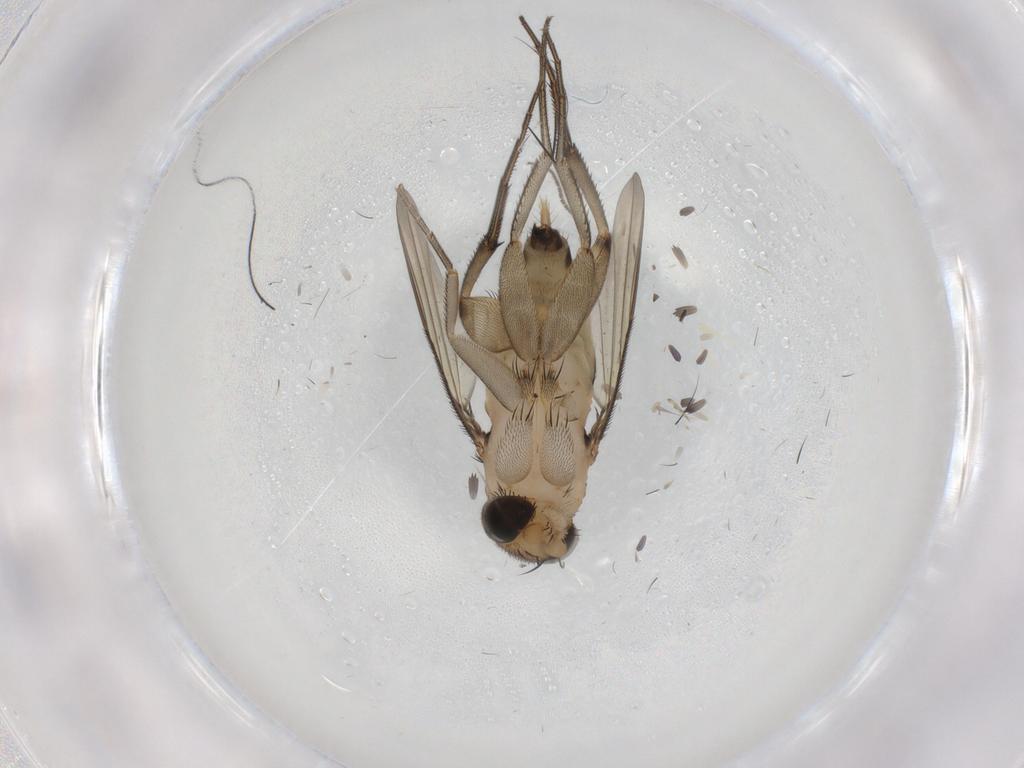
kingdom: Animalia
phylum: Arthropoda
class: Insecta
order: Diptera
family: Phoridae
